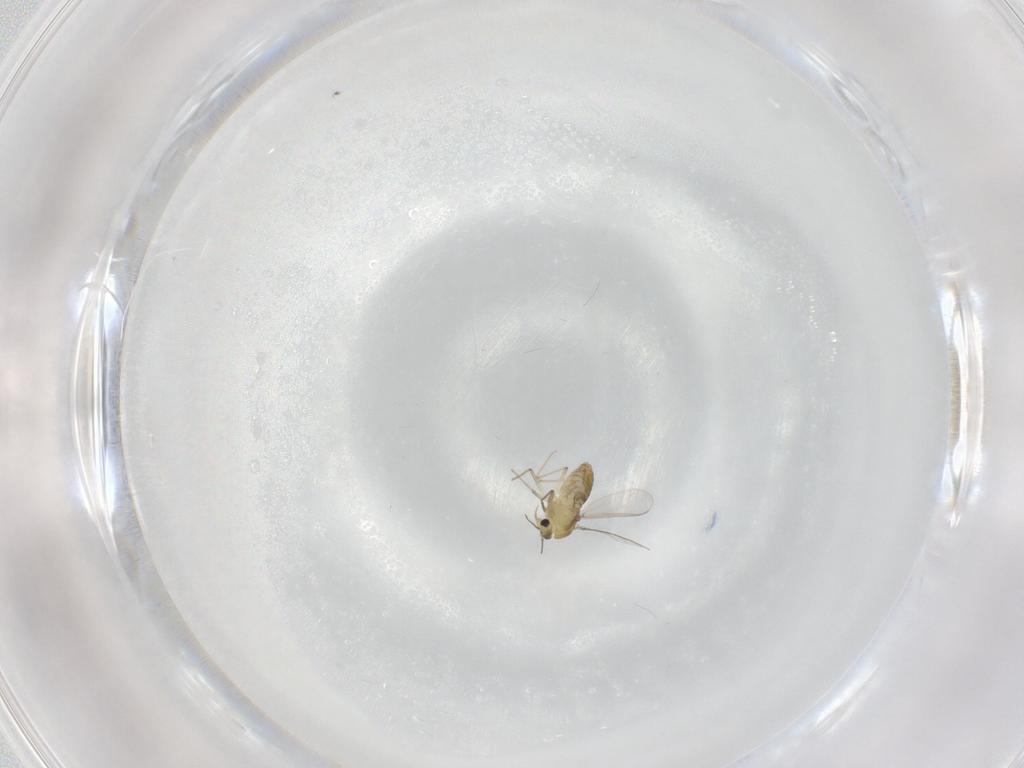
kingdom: Animalia
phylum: Arthropoda
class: Insecta
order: Diptera
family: Chironomidae
